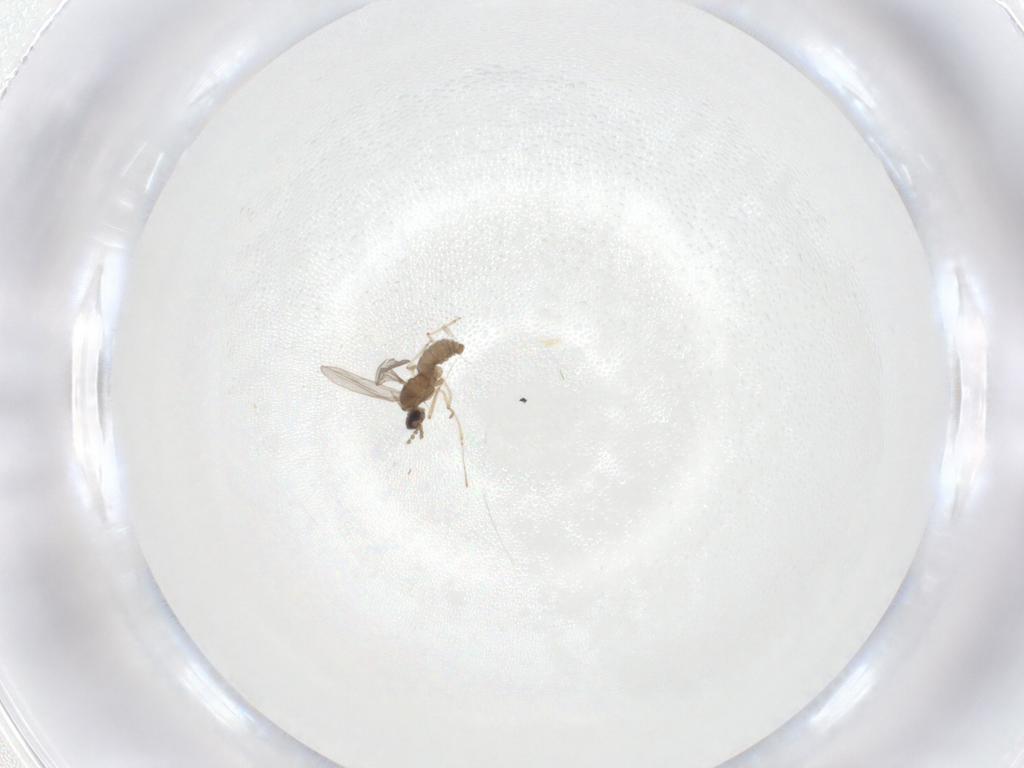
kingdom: Animalia
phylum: Arthropoda
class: Insecta
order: Diptera
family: Cecidomyiidae
